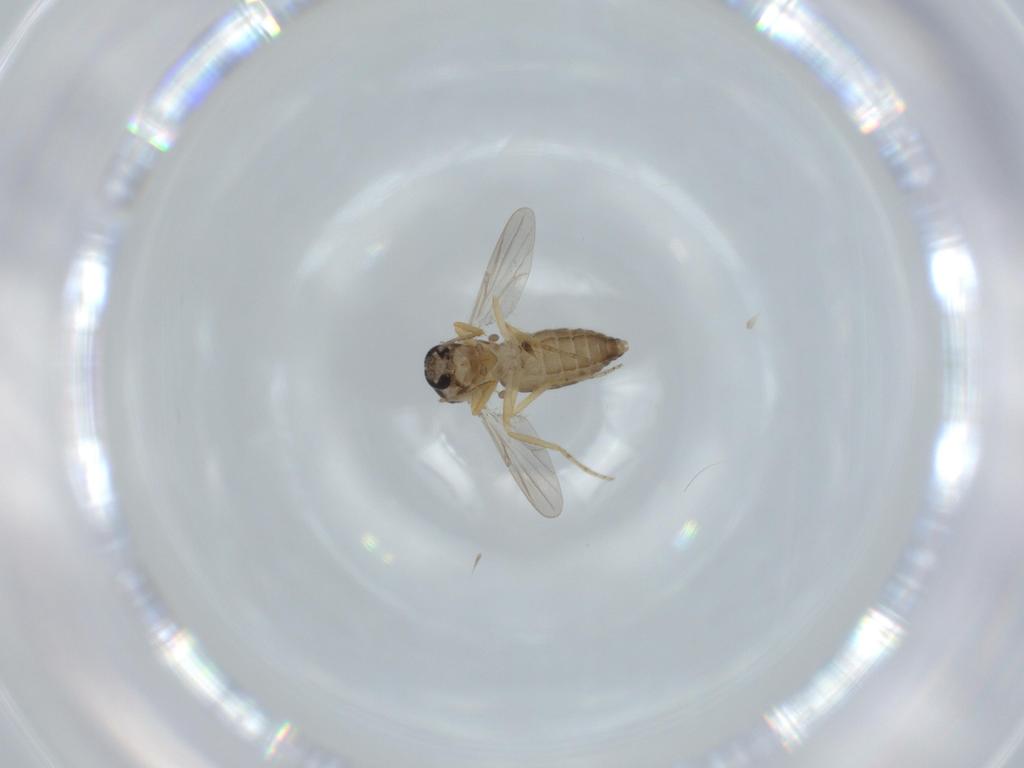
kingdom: Animalia
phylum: Arthropoda
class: Insecta
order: Diptera
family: Ceratopogonidae
